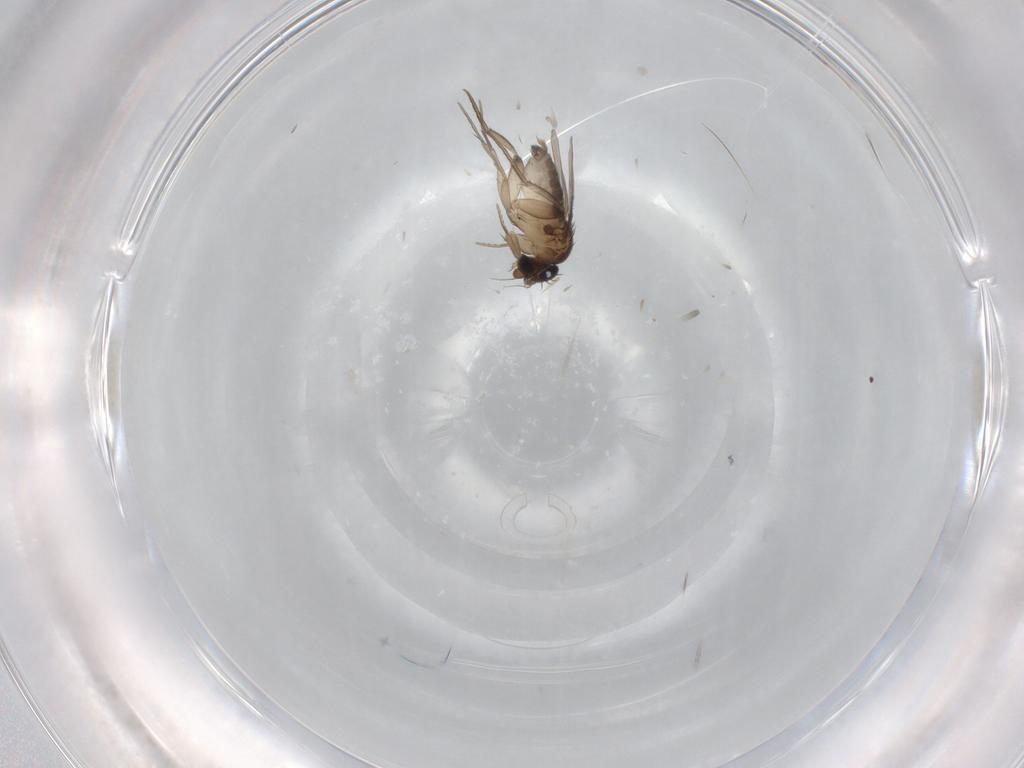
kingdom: Animalia
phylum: Arthropoda
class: Insecta
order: Diptera
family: Phoridae
